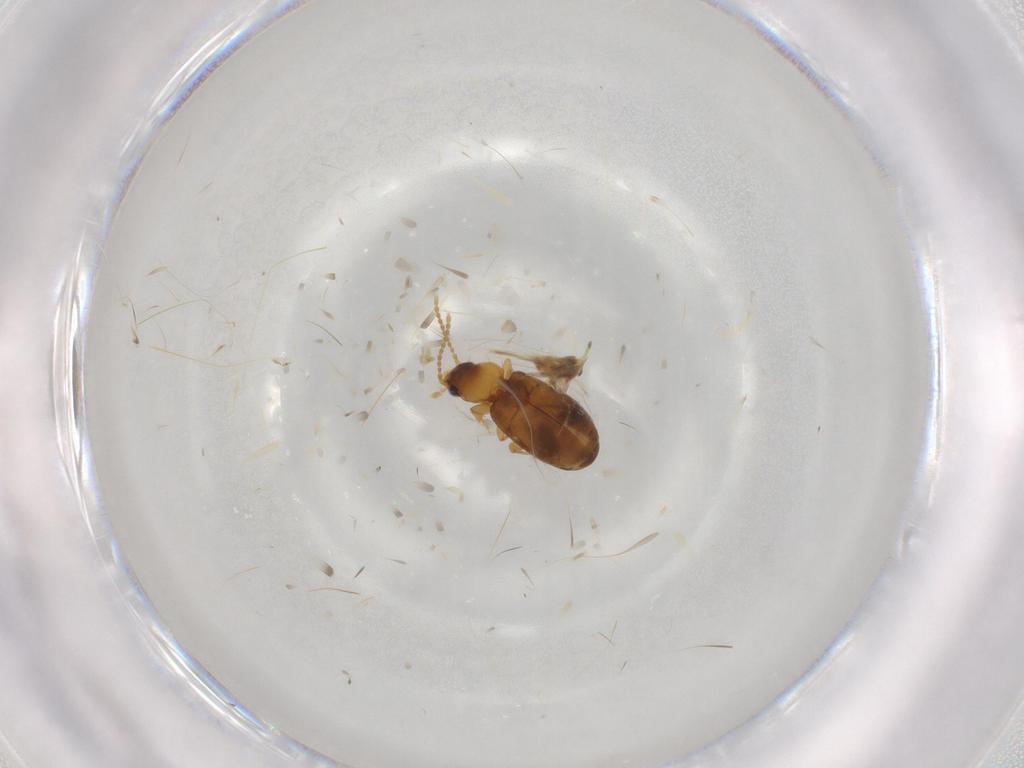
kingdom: Animalia
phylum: Arthropoda
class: Insecta
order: Coleoptera
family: Carabidae
